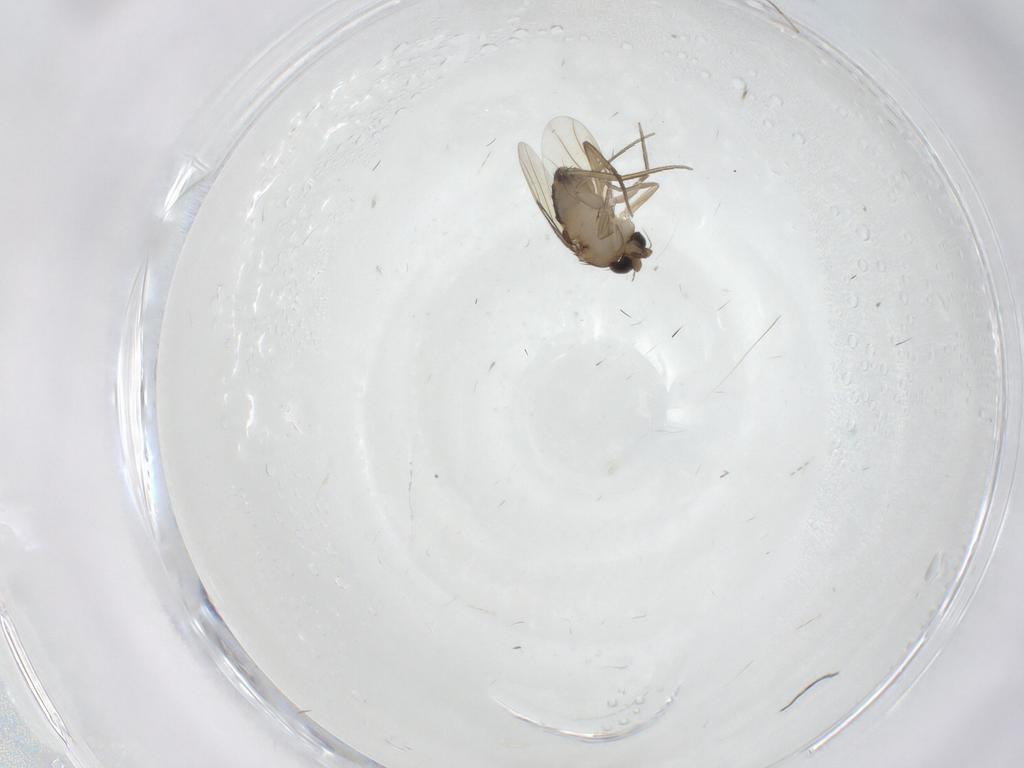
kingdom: Animalia
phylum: Arthropoda
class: Insecta
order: Diptera
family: Phoridae
